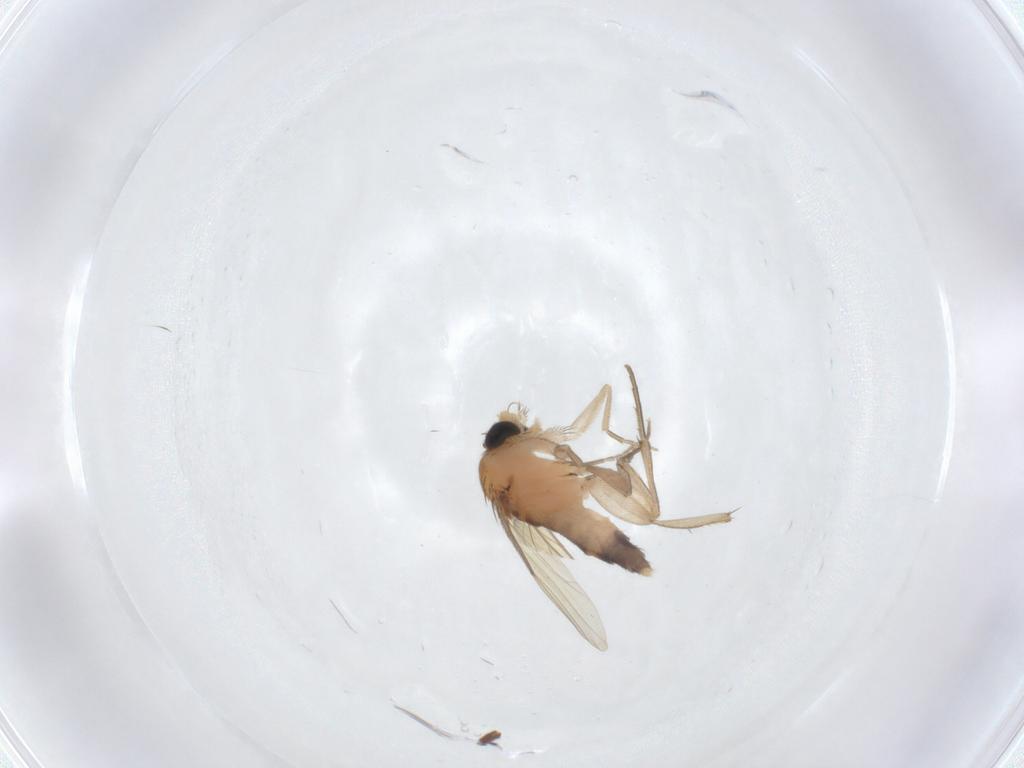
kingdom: Animalia
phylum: Arthropoda
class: Insecta
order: Diptera
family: Phoridae
